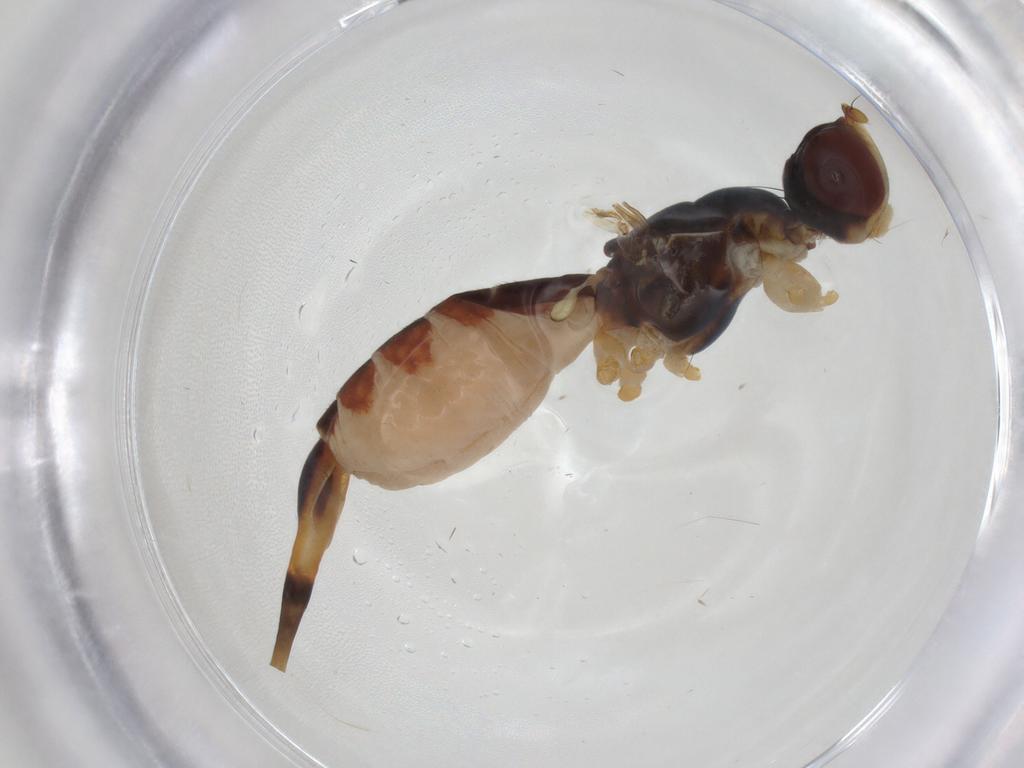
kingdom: Animalia
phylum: Arthropoda
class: Insecta
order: Diptera
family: Micropezidae
